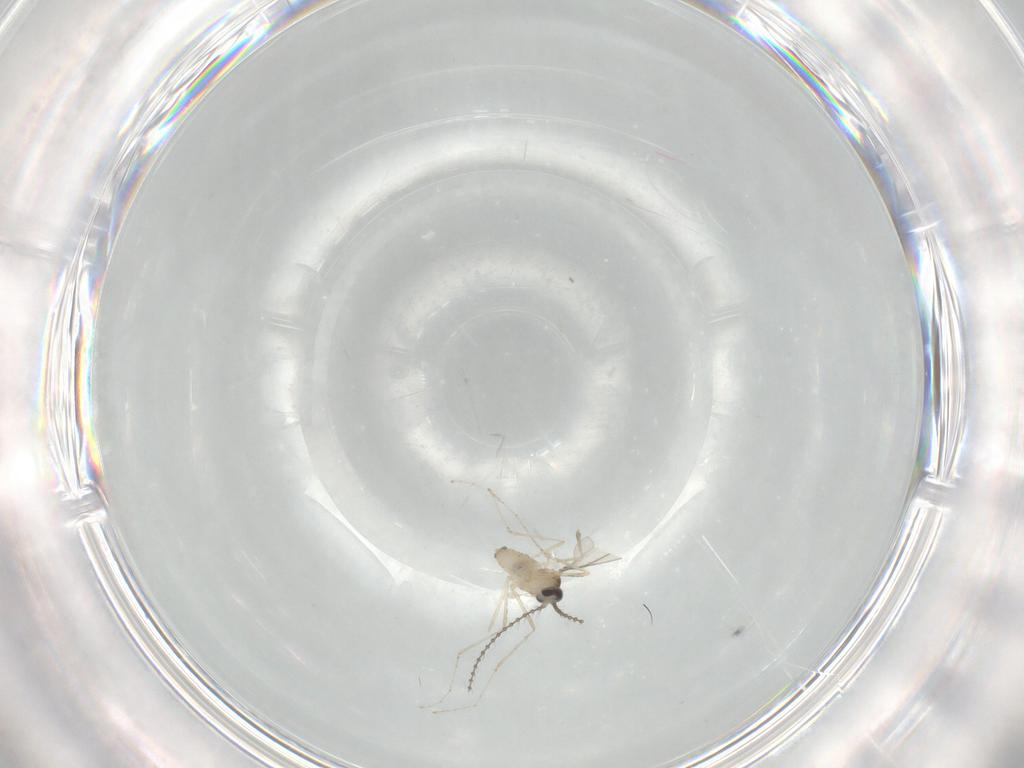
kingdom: Animalia
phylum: Arthropoda
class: Insecta
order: Diptera
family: Cecidomyiidae
